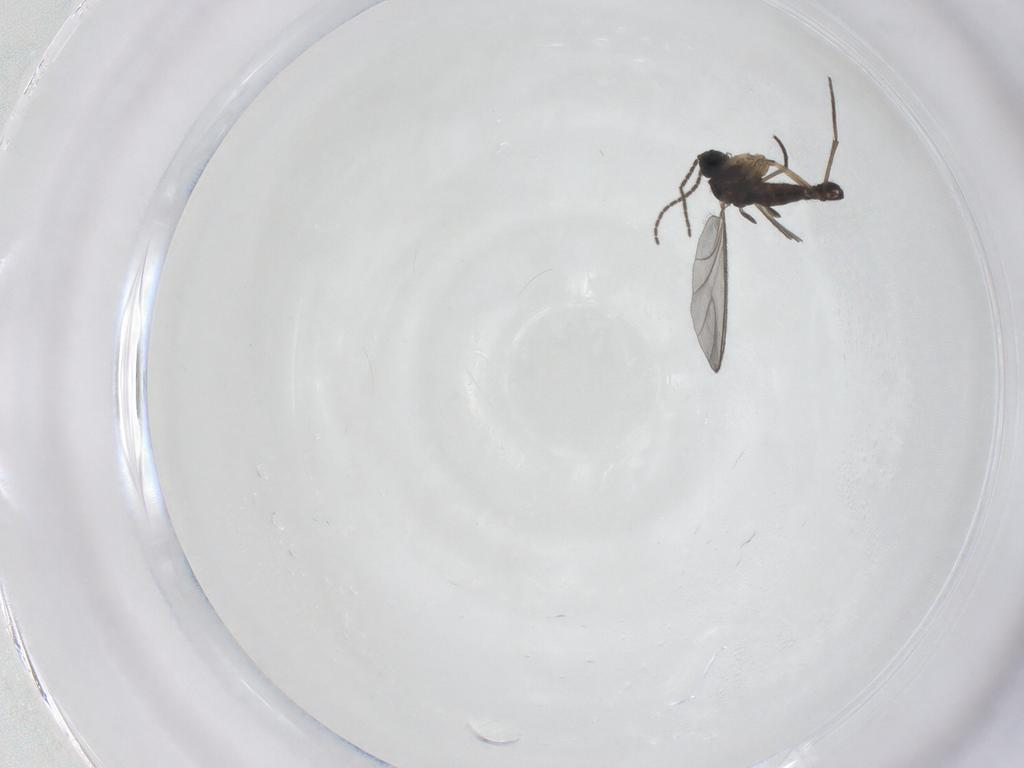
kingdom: Animalia
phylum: Arthropoda
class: Insecta
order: Diptera
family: Sciaridae
